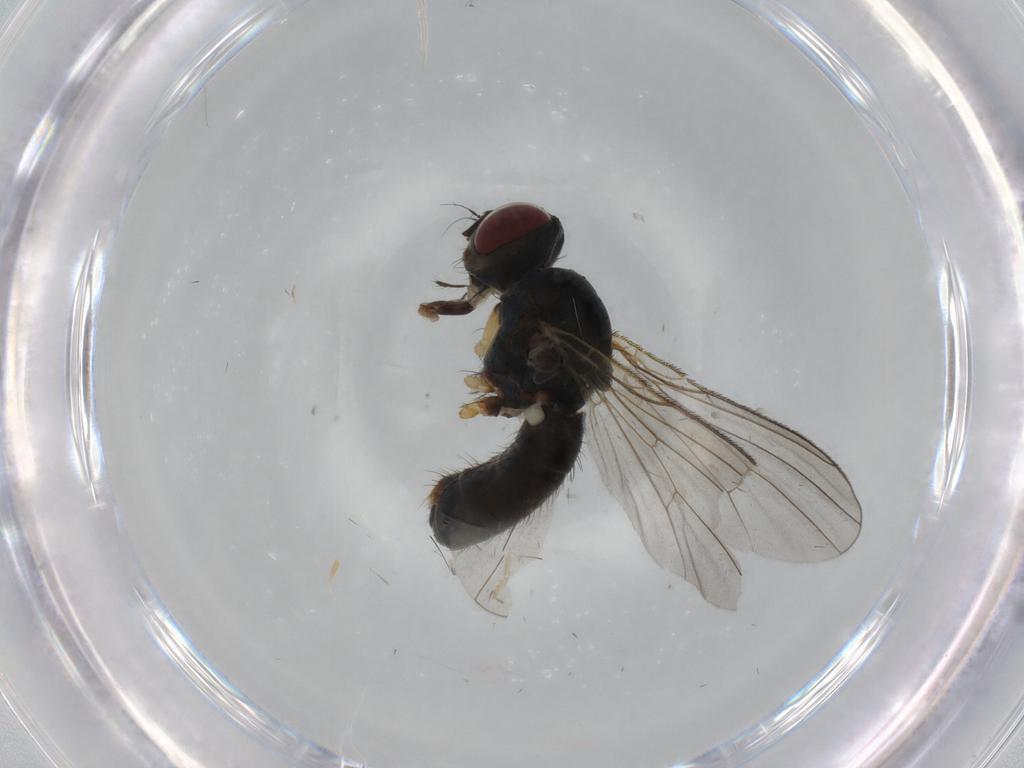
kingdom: Animalia
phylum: Arthropoda
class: Insecta
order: Diptera
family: Muscidae
